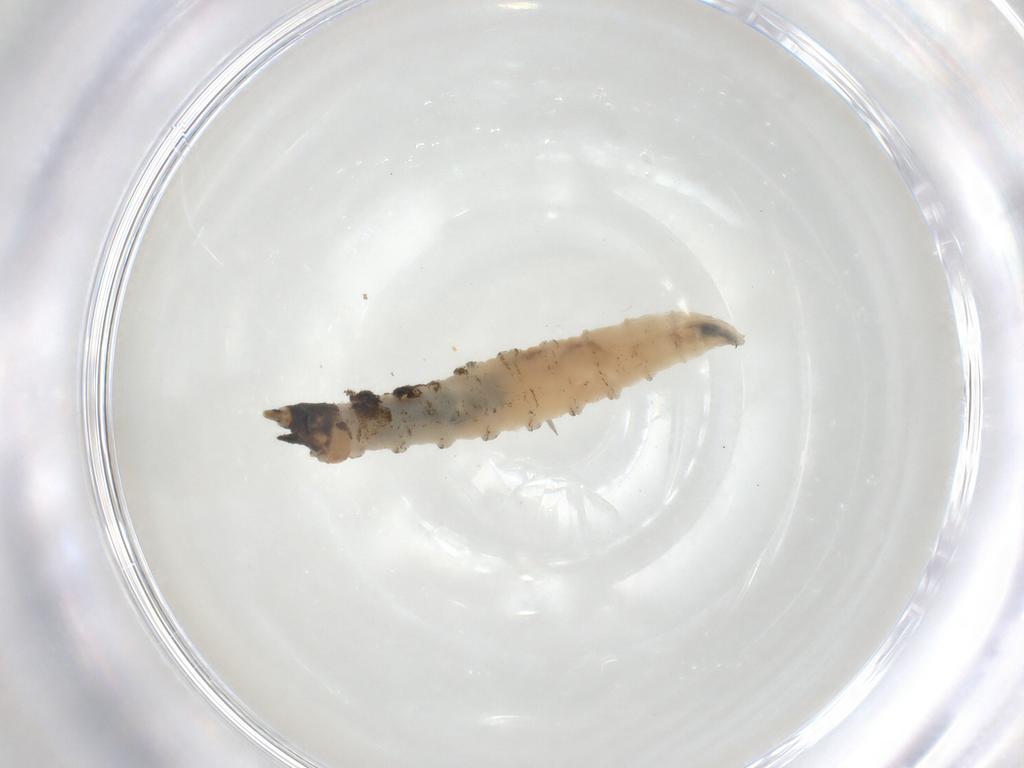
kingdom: Animalia
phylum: Arthropoda
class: Insecta
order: Diptera
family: Ceratopogonidae
